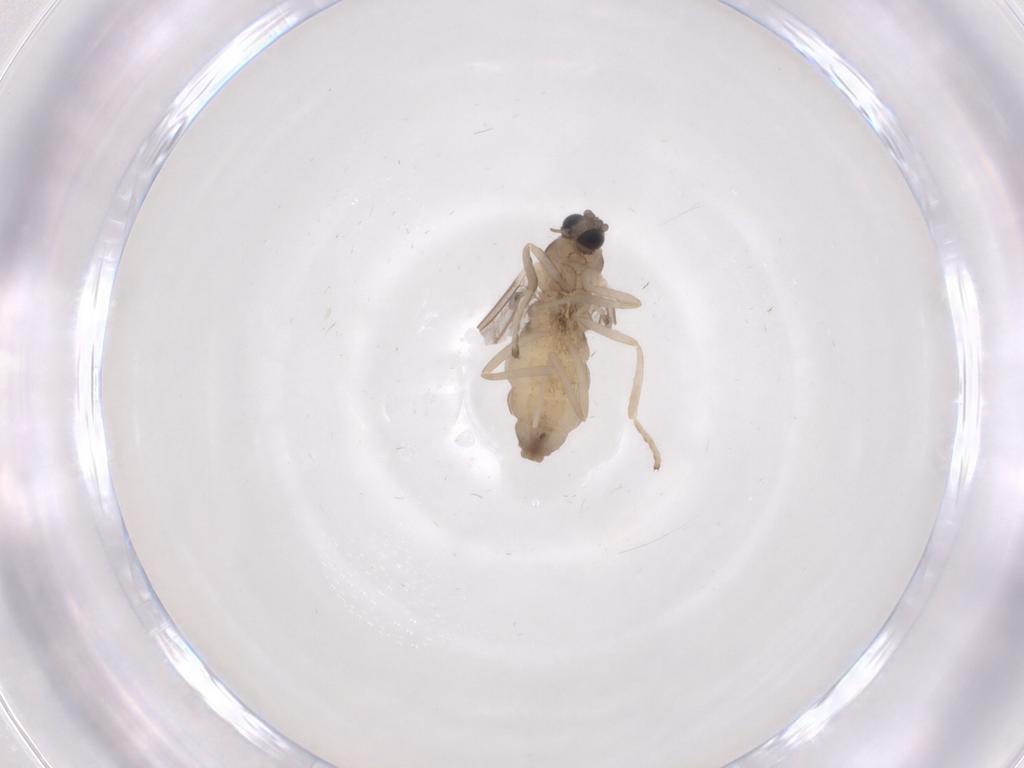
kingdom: Animalia
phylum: Arthropoda
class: Insecta
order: Diptera
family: Cecidomyiidae
